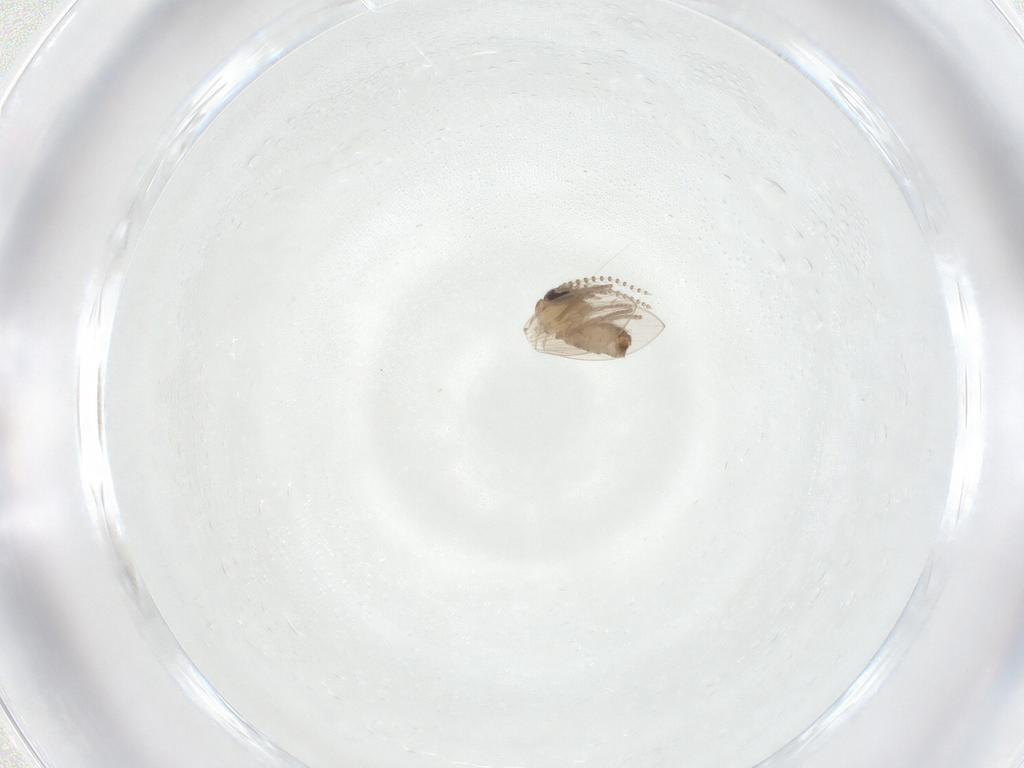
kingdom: Animalia
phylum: Arthropoda
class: Insecta
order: Diptera
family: Psychodidae
